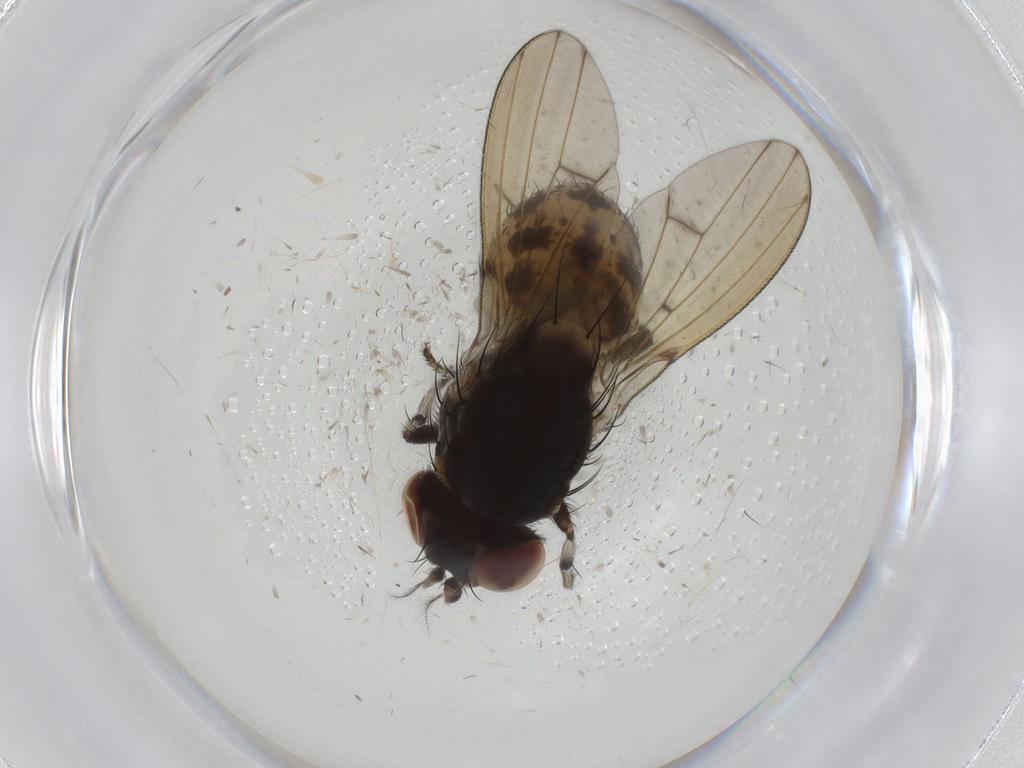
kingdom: Animalia
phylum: Arthropoda
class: Insecta
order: Diptera
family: Limoniidae
